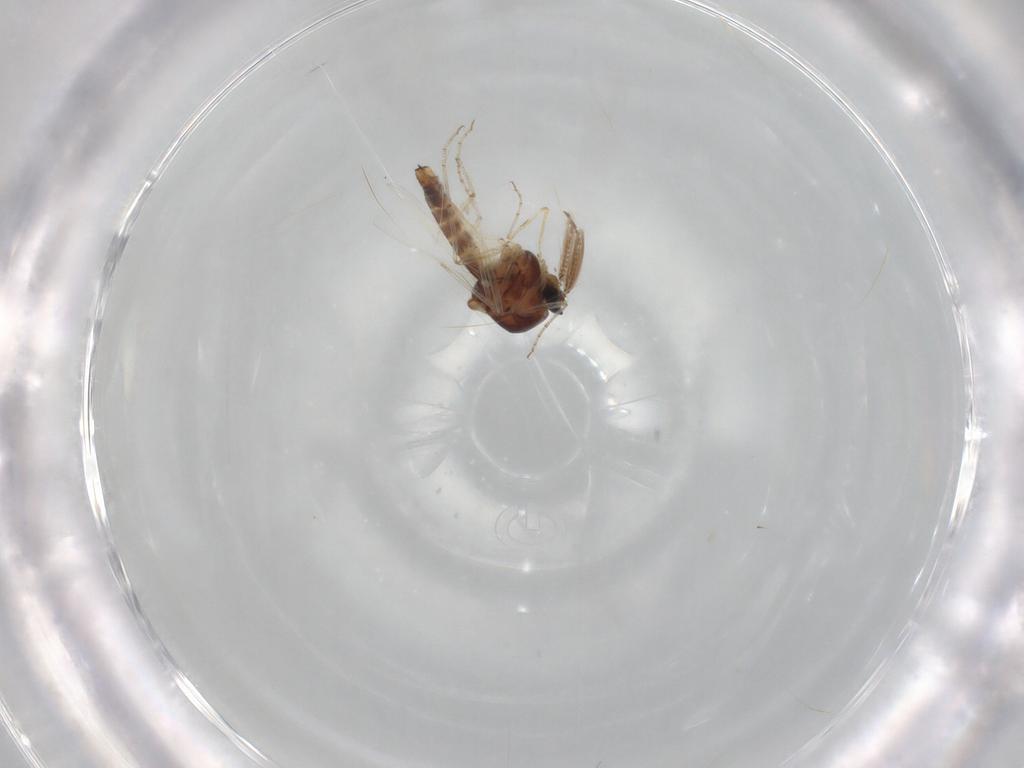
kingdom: Animalia
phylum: Arthropoda
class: Insecta
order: Diptera
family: Ceratopogonidae
